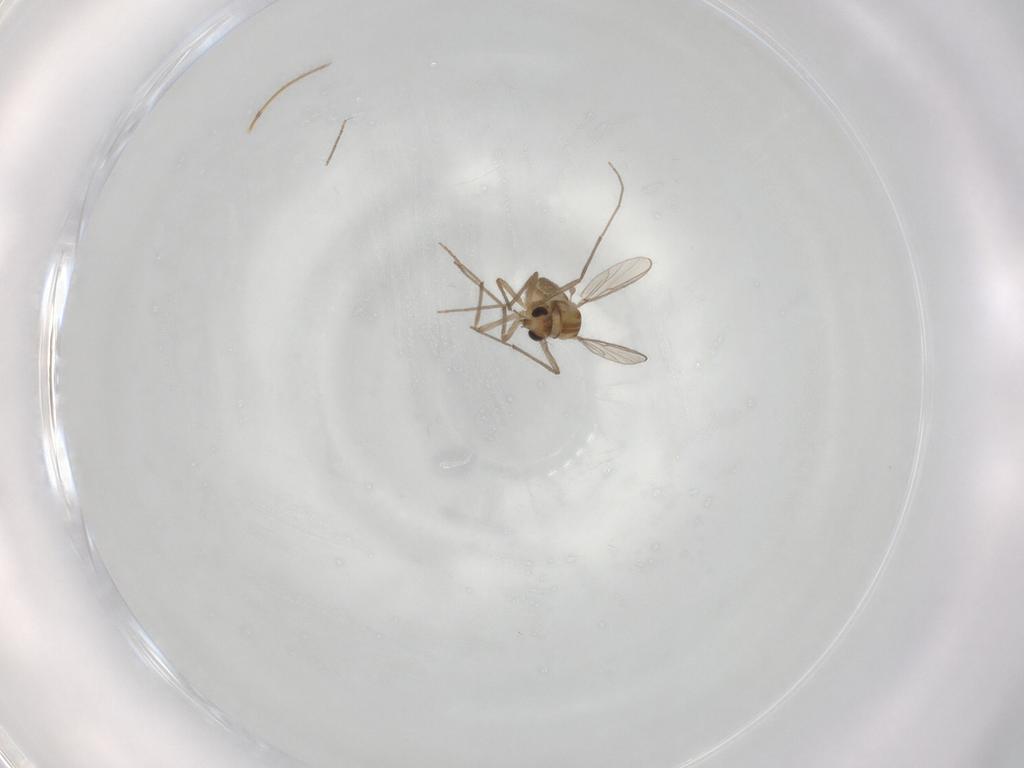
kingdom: Animalia
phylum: Arthropoda
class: Insecta
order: Diptera
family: Chironomidae
